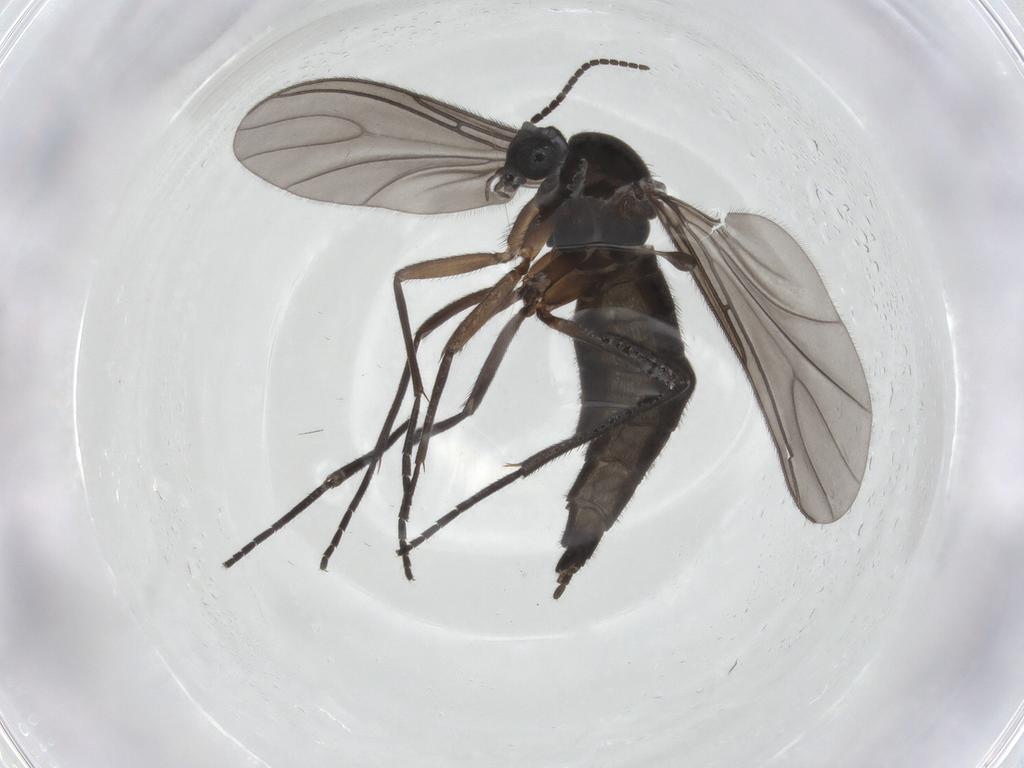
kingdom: Animalia
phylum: Arthropoda
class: Insecta
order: Diptera
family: Sciaridae
